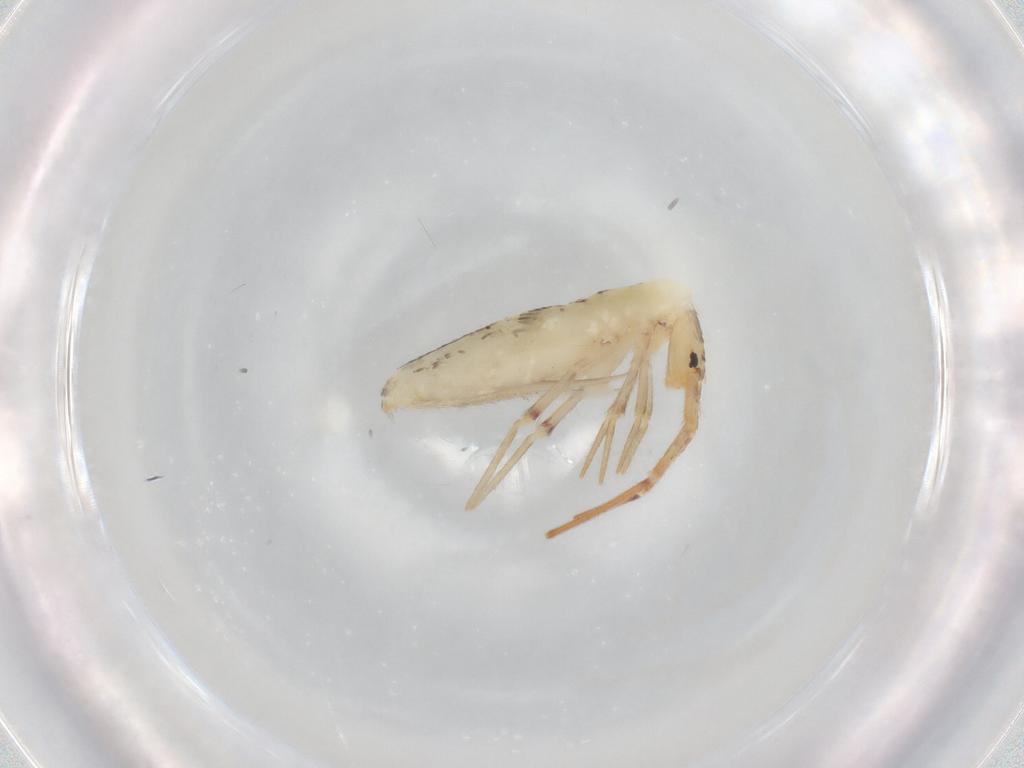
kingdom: Animalia
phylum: Arthropoda
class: Collembola
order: Poduromorpha
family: Hypogastruridae
